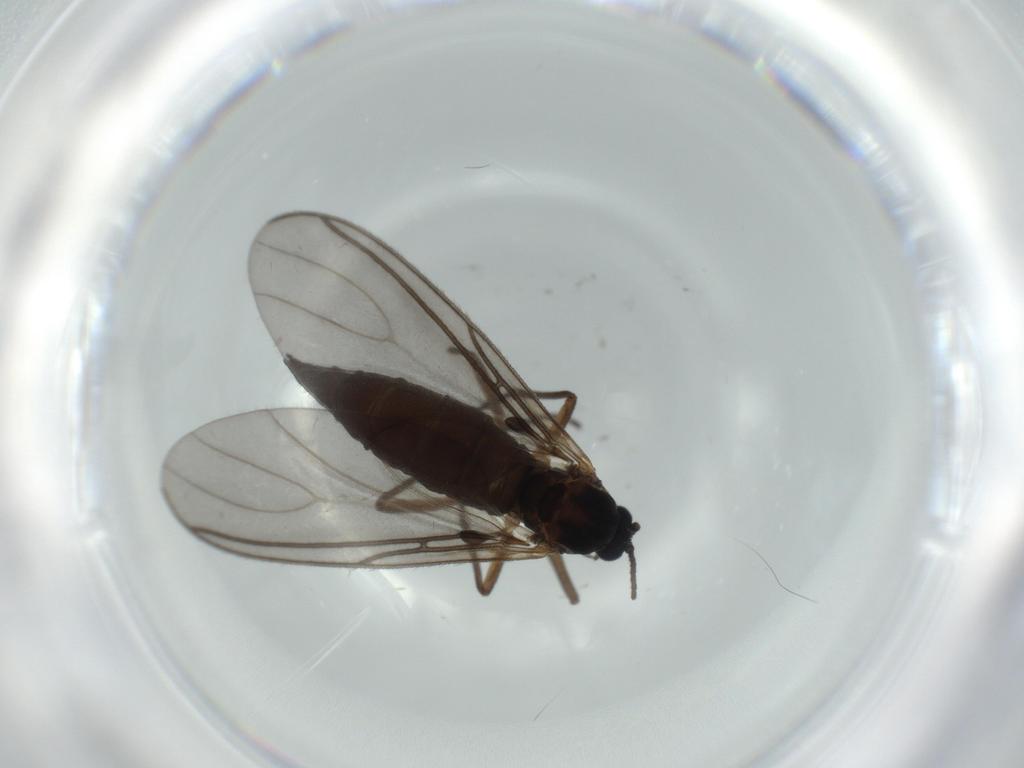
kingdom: Animalia
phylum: Arthropoda
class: Insecta
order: Diptera
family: Sciaridae
